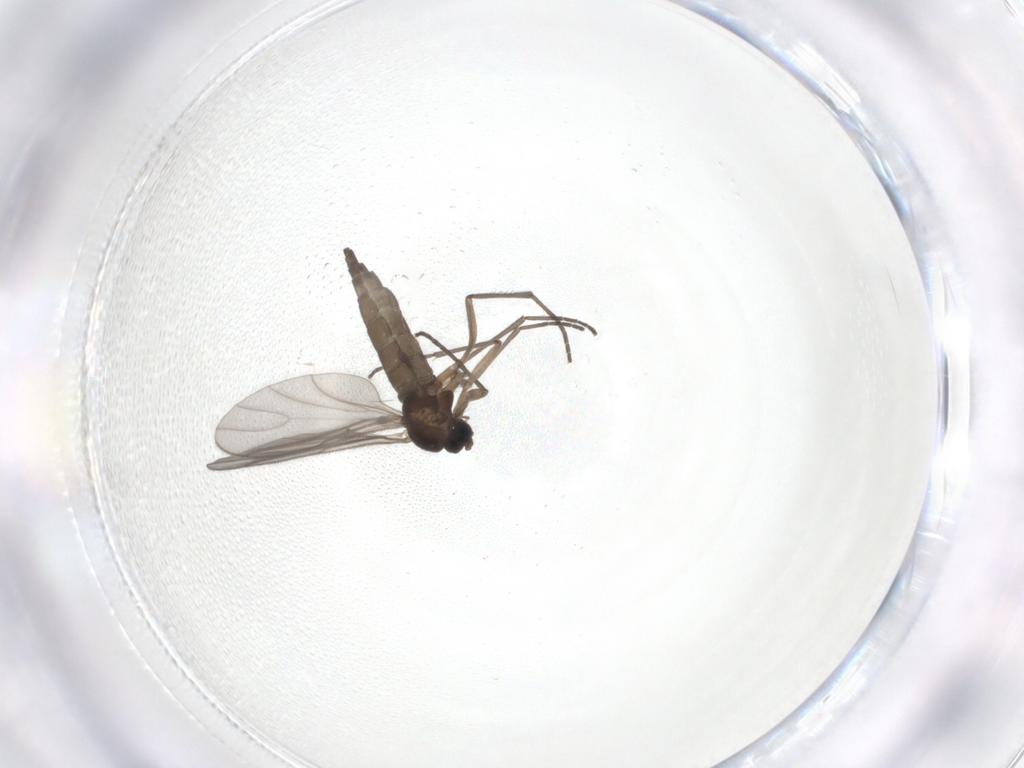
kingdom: Animalia
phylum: Arthropoda
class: Insecta
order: Diptera
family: Sciaridae
